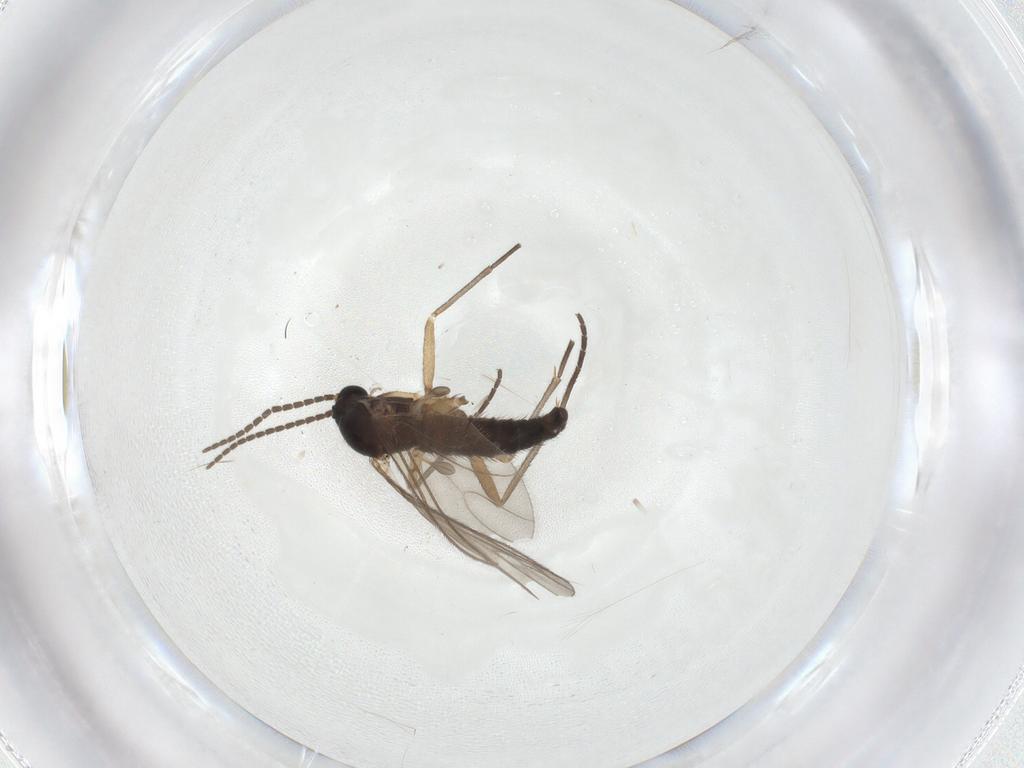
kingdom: Animalia
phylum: Arthropoda
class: Insecta
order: Diptera
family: Sciaridae
